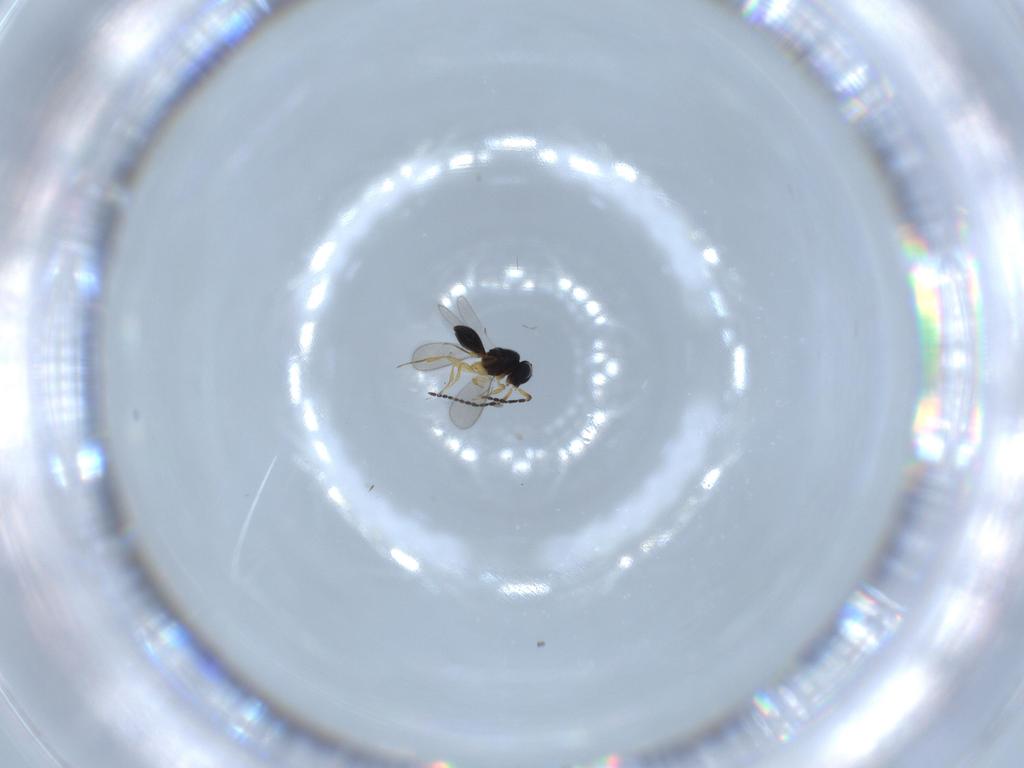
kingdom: Animalia
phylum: Arthropoda
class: Insecta
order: Hymenoptera
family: Scelionidae
